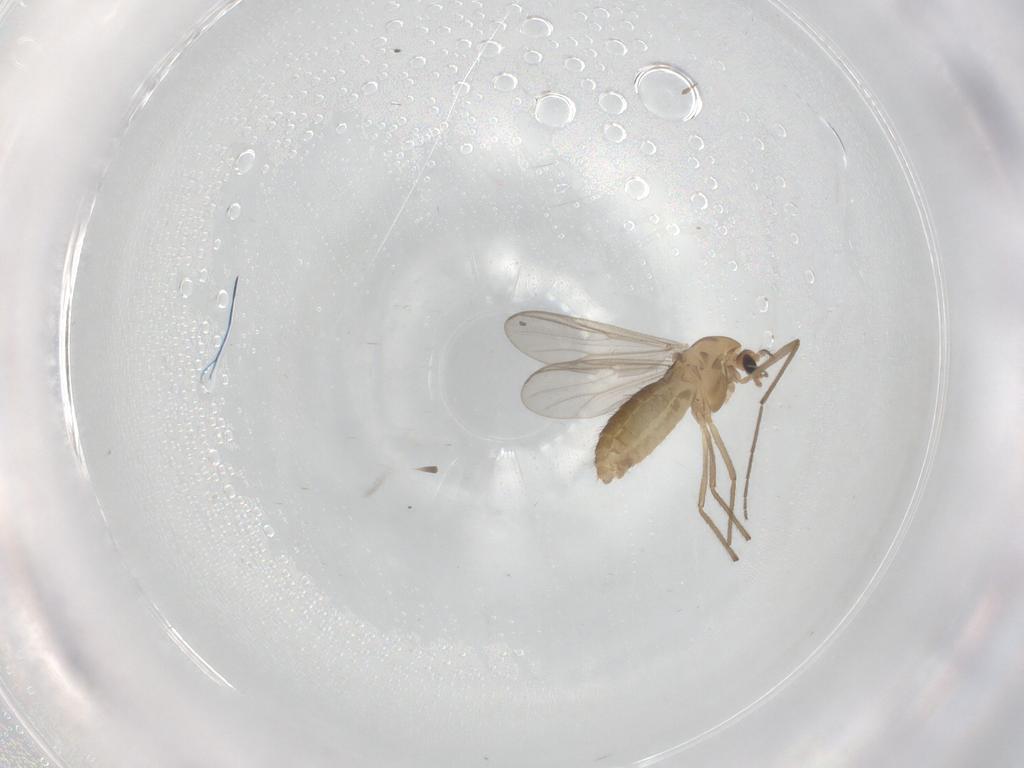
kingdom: Animalia
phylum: Arthropoda
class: Insecta
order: Diptera
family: Chironomidae
